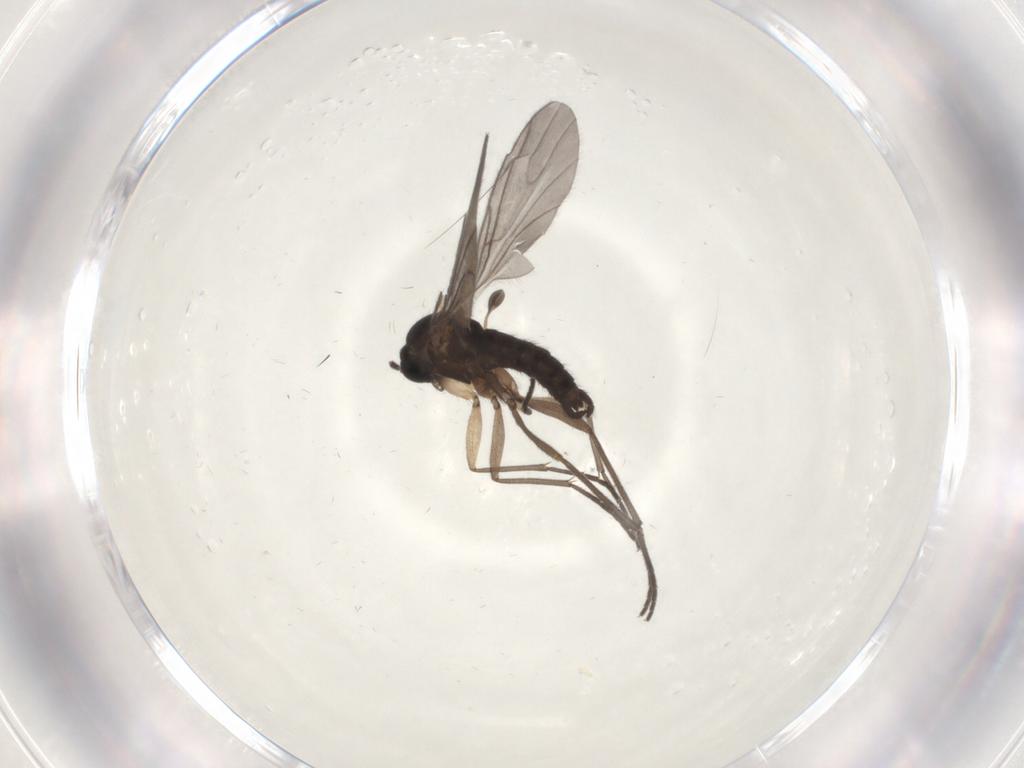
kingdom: Animalia
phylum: Arthropoda
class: Insecta
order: Diptera
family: Sciaridae
